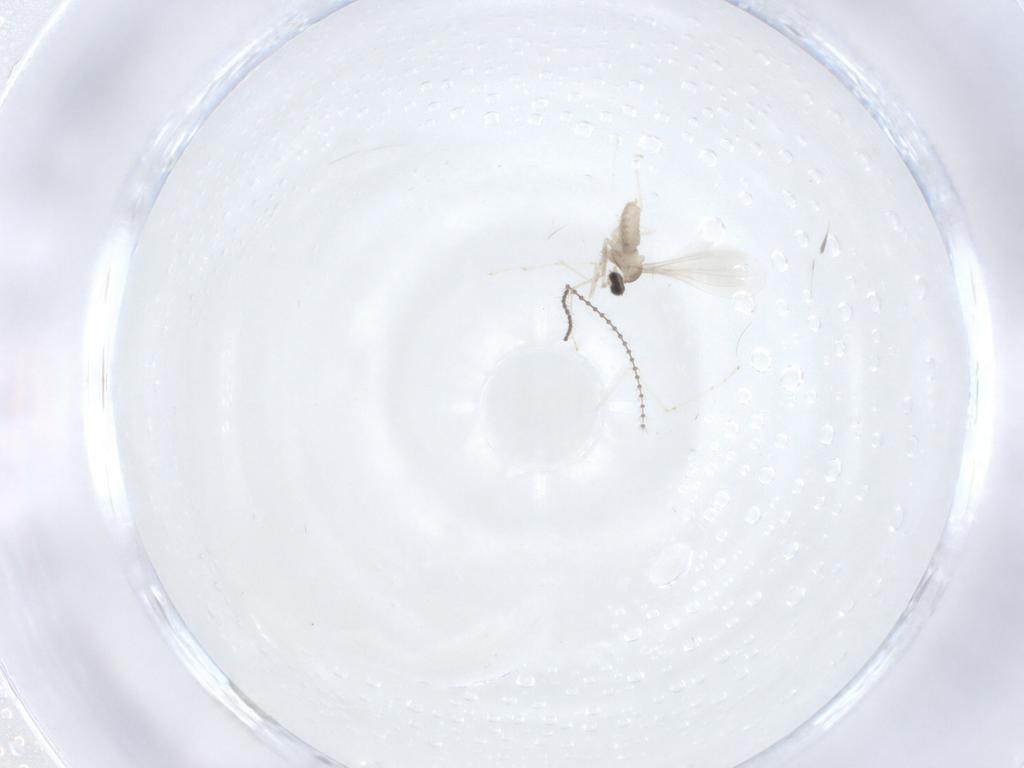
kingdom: Animalia
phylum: Arthropoda
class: Insecta
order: Diptera
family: Cecidomyiidae
